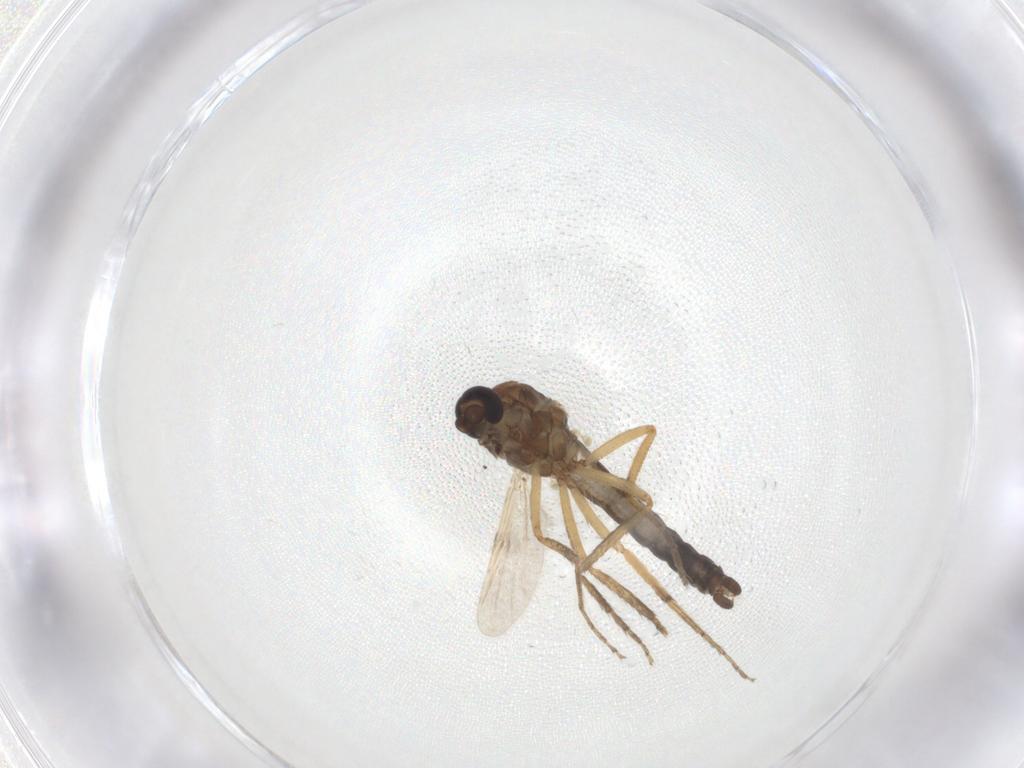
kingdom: Animalia
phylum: Arthropoda
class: Insecta
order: Diptera
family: Ceratopogonidae
